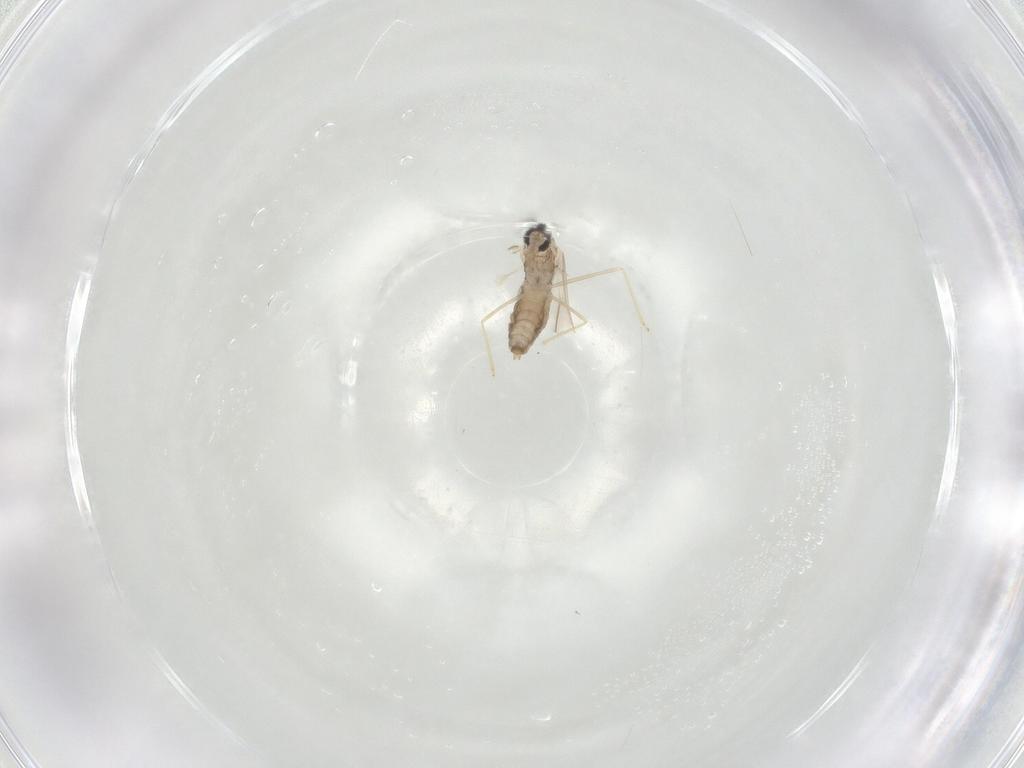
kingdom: Animalia
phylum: Arthropoda
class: Insecta
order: Diptera
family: Cecidomyiidae
